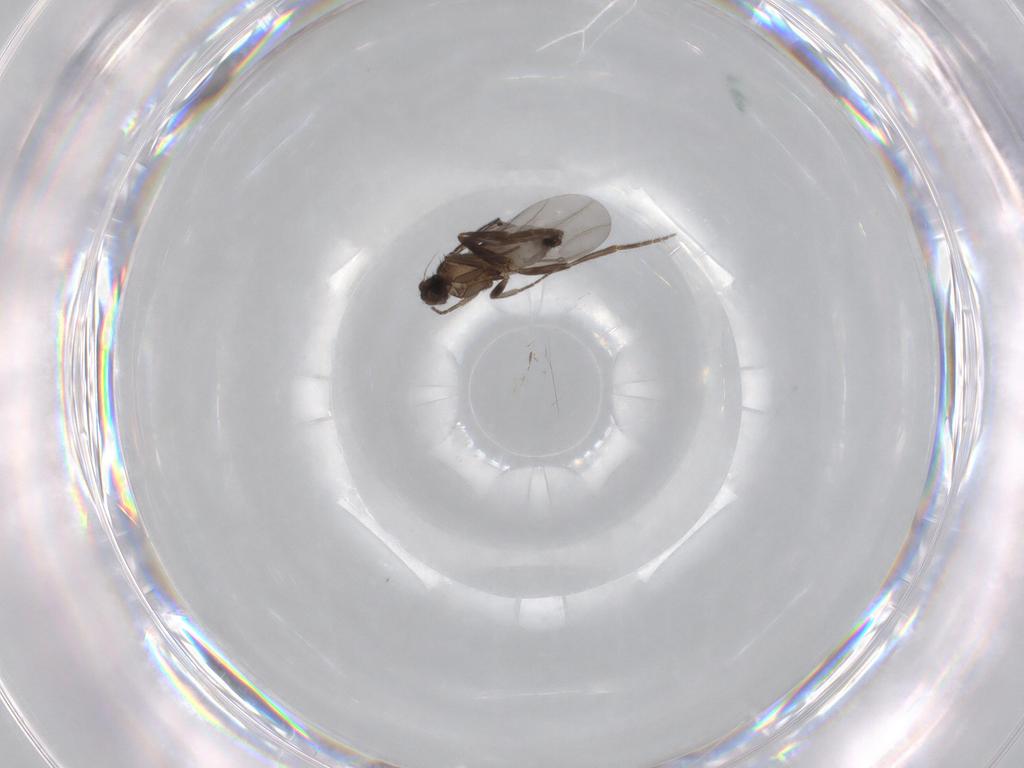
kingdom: Animalia
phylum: Arthropoda
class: Insecta
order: Diptera
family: Phoridae
